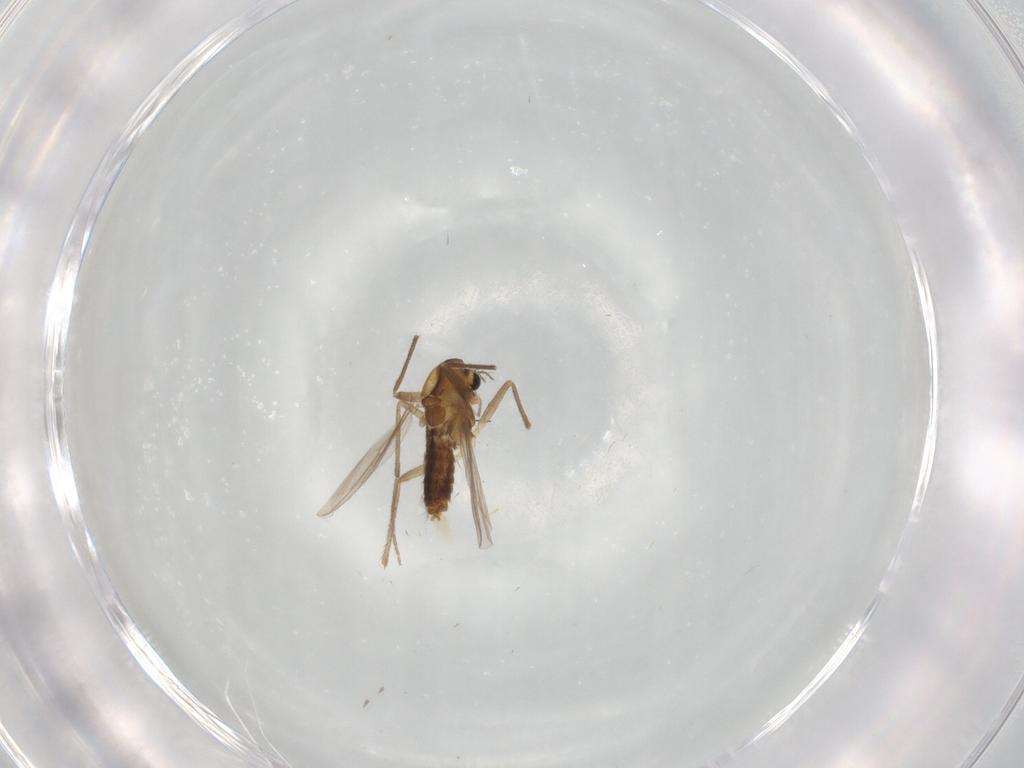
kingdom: Animalia
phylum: Arthropoda
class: Insecta
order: Diptera
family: Chironomidae
